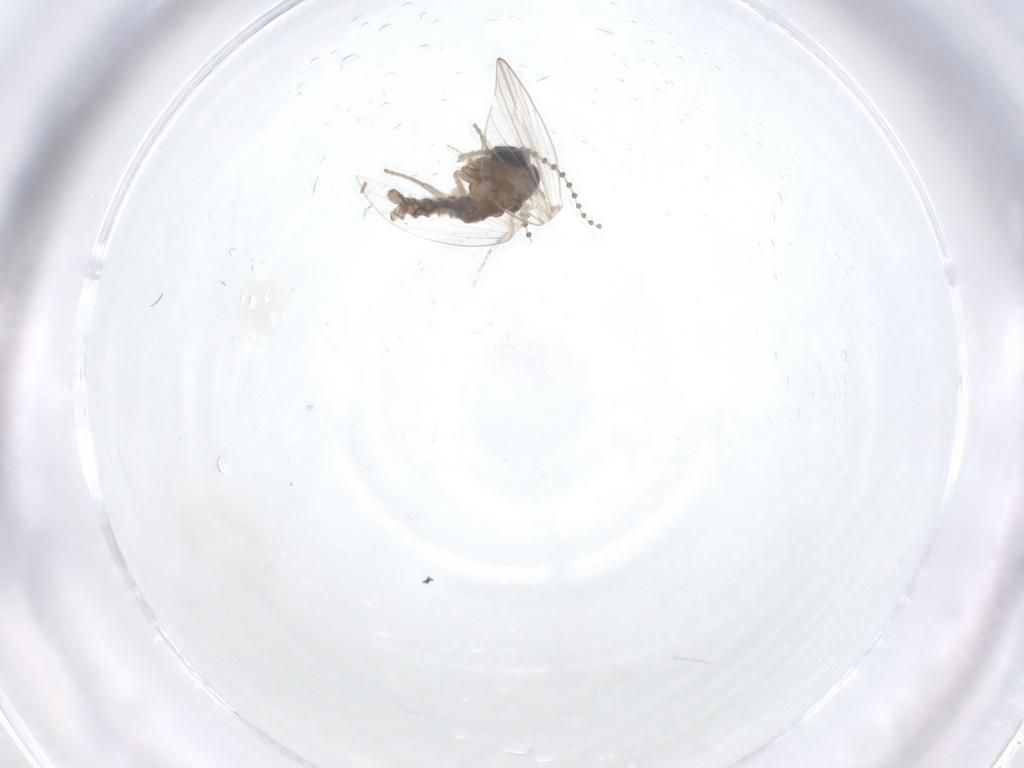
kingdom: Animalia
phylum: Arthropoda
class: Insecta
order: Diptera
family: Psychodidae
